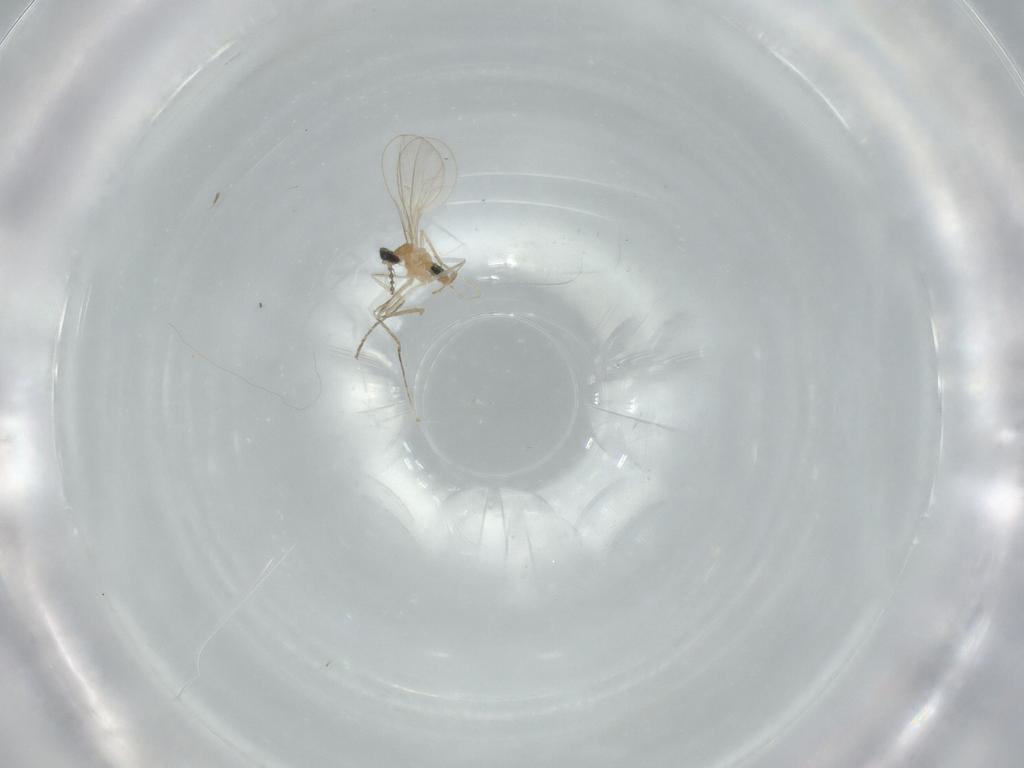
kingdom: Animalia
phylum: Arthropoda
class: Insecta
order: Diptera
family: Cecidomyiidae
